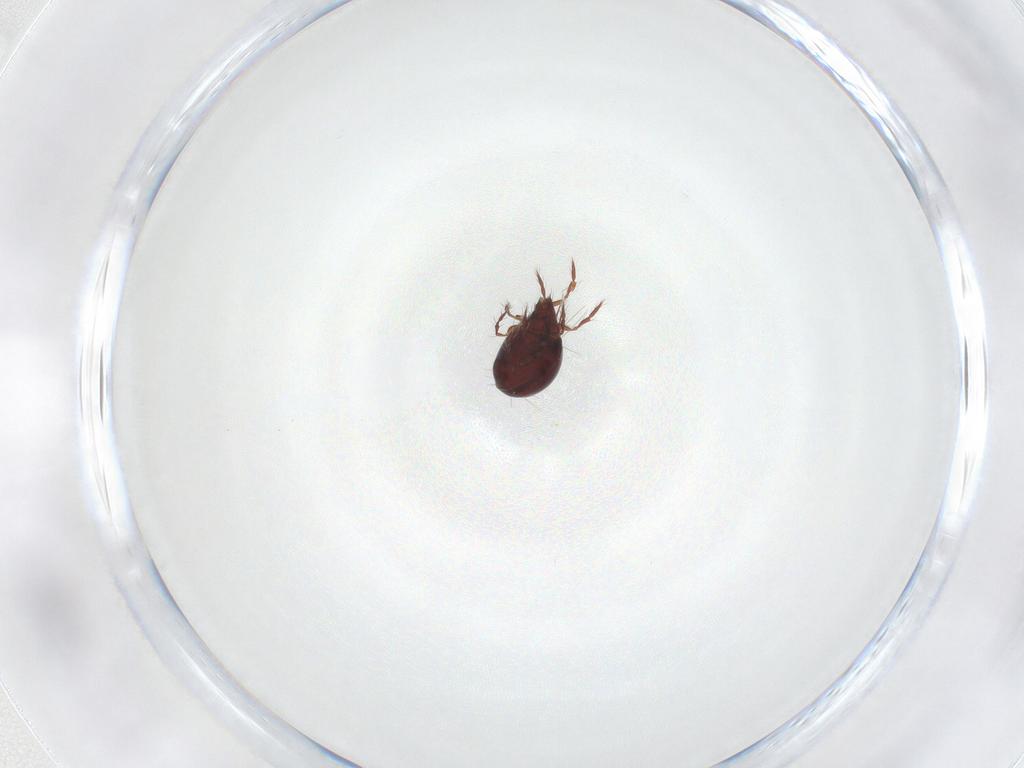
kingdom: Animalia
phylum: Arthropoda
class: Arachnida
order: Sarcoptiformes
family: Ceratoppiidae
